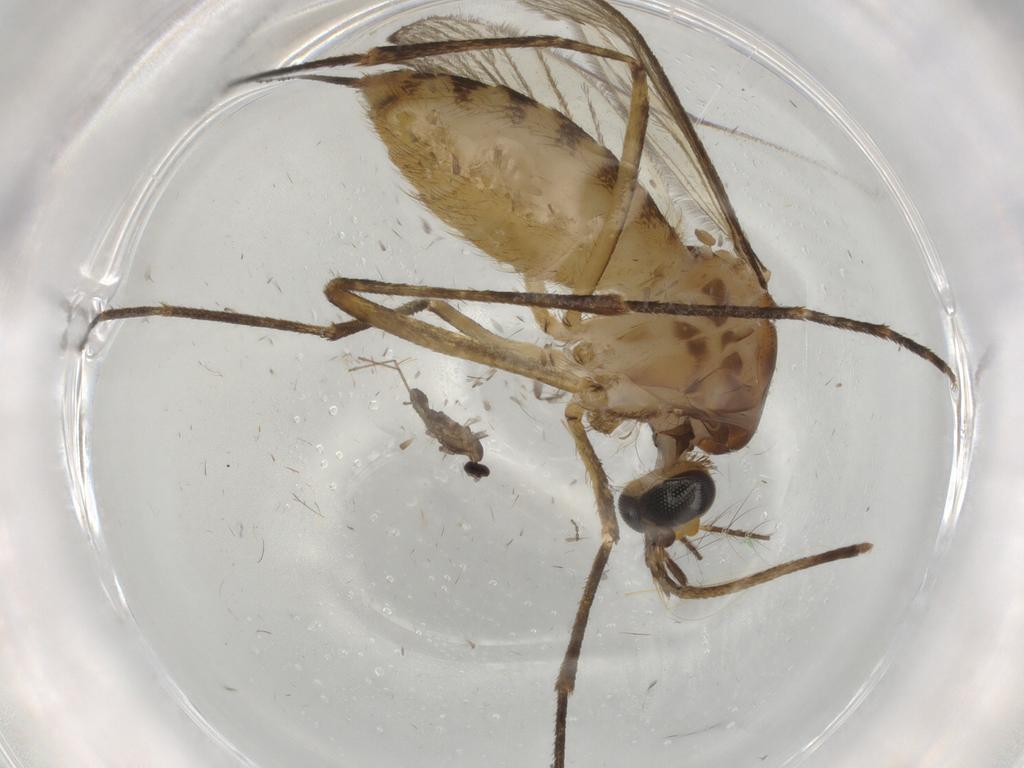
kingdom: Animalia
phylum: Arthropoda
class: Insecta
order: Diptera
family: Cecidomyiidae
